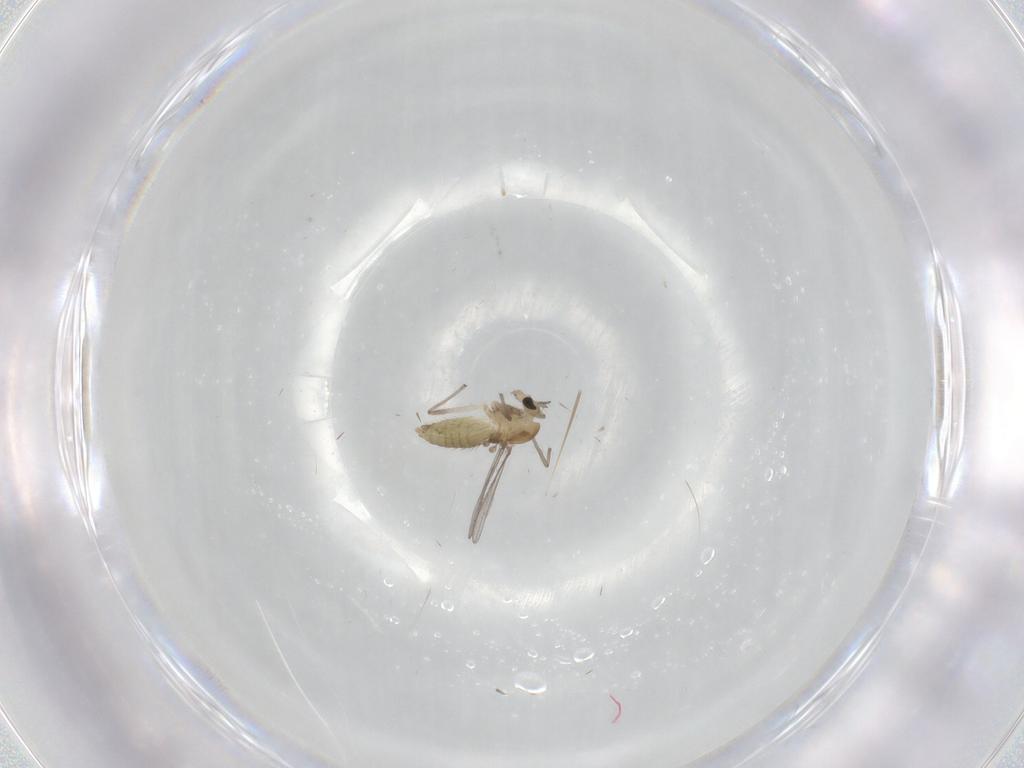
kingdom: Animalia
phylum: Arthropoda
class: Insecta
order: Diptera
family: Chironomidae
